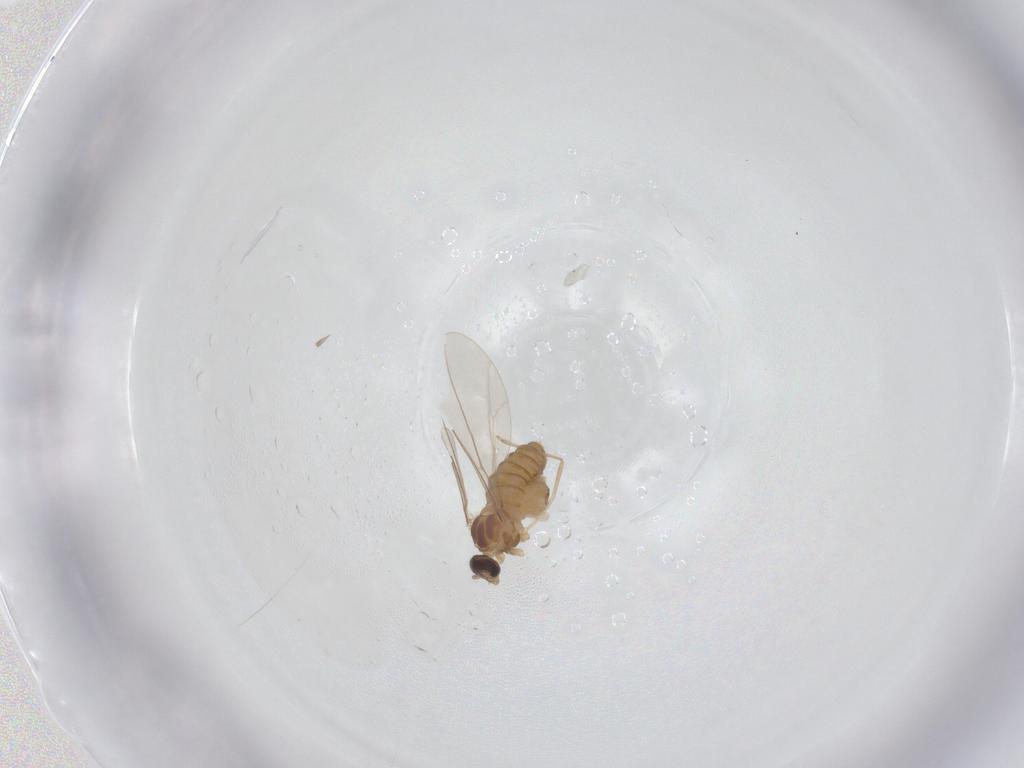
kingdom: Animalia
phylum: Arthropoda
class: Insecta
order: Diptera
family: Cecidomyiidae
